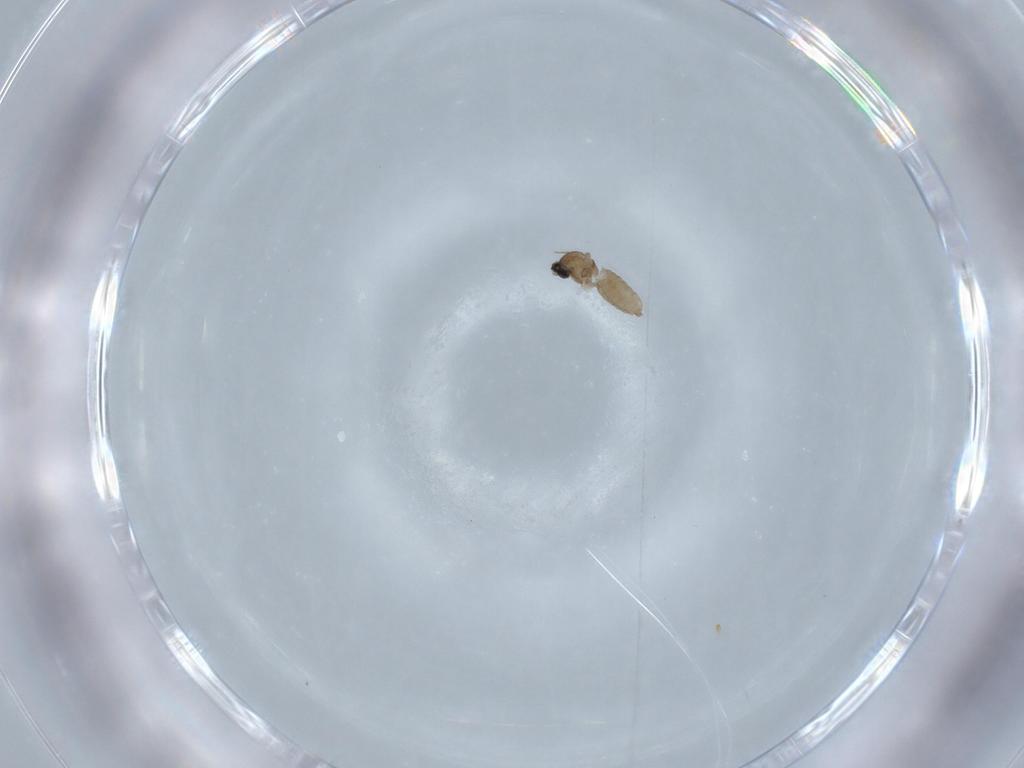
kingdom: Animalia
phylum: Arthropoda
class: Insecta
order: Diptera
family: Cecidomyiidae
